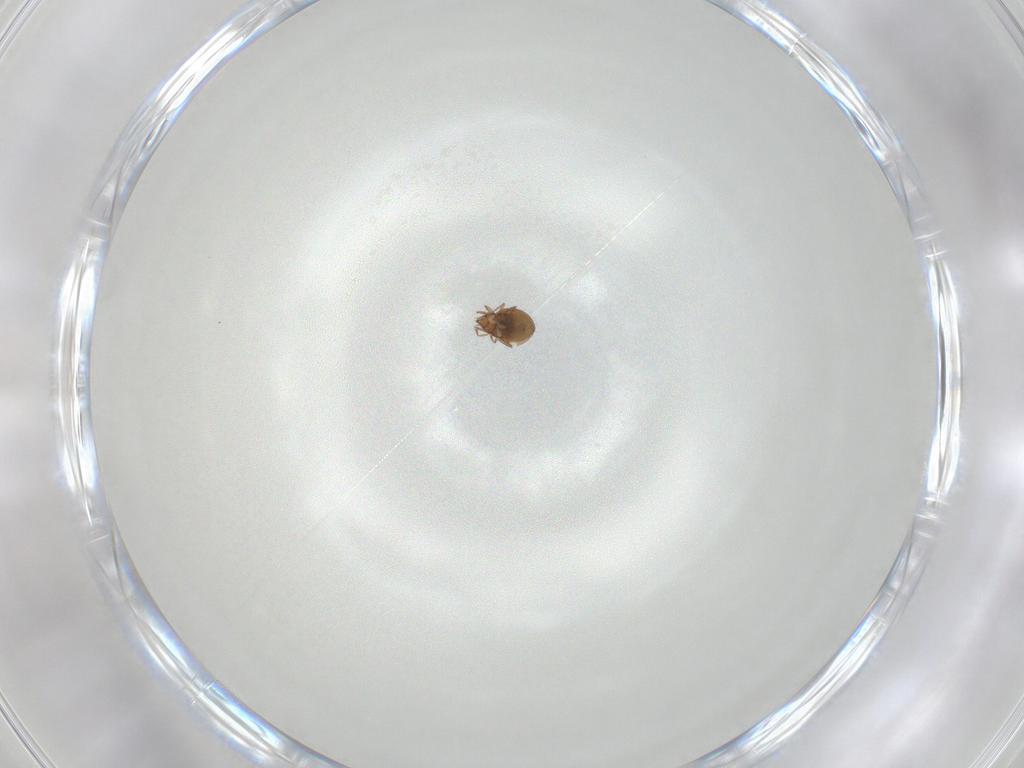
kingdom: Animalia
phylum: Arthropoda
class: Arachnida
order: Sarcoptiformes
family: Oribatulidae
